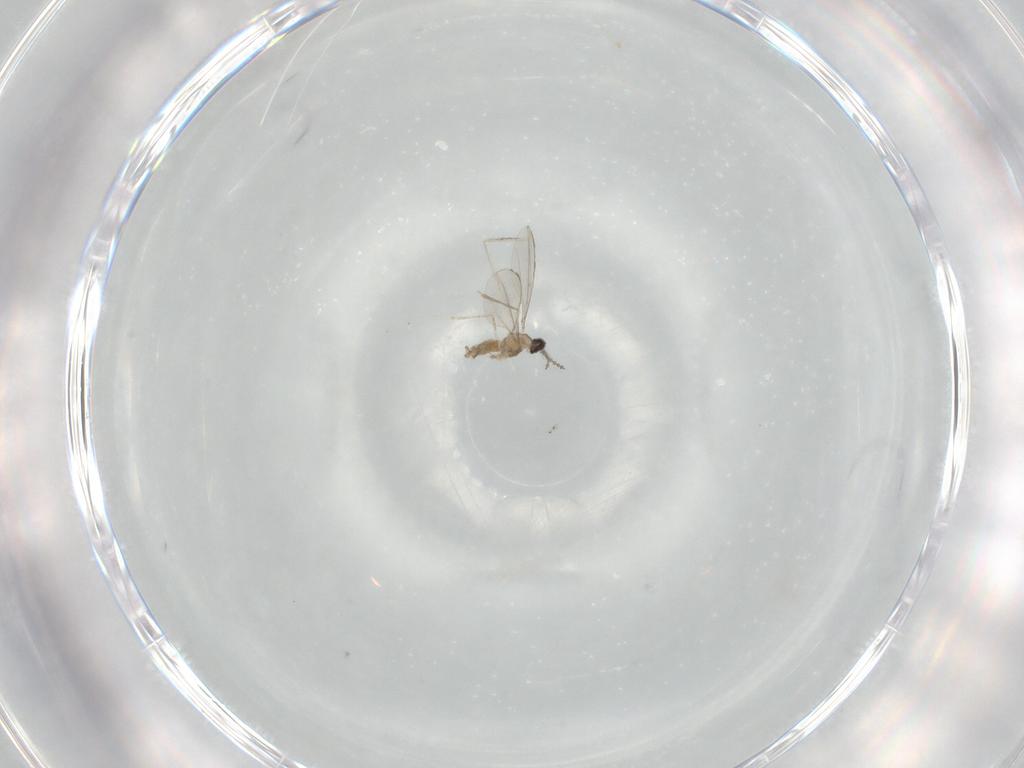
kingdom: Animalia
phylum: Arthropoda
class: Insecta
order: Diptera
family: Cecidomyiidae
